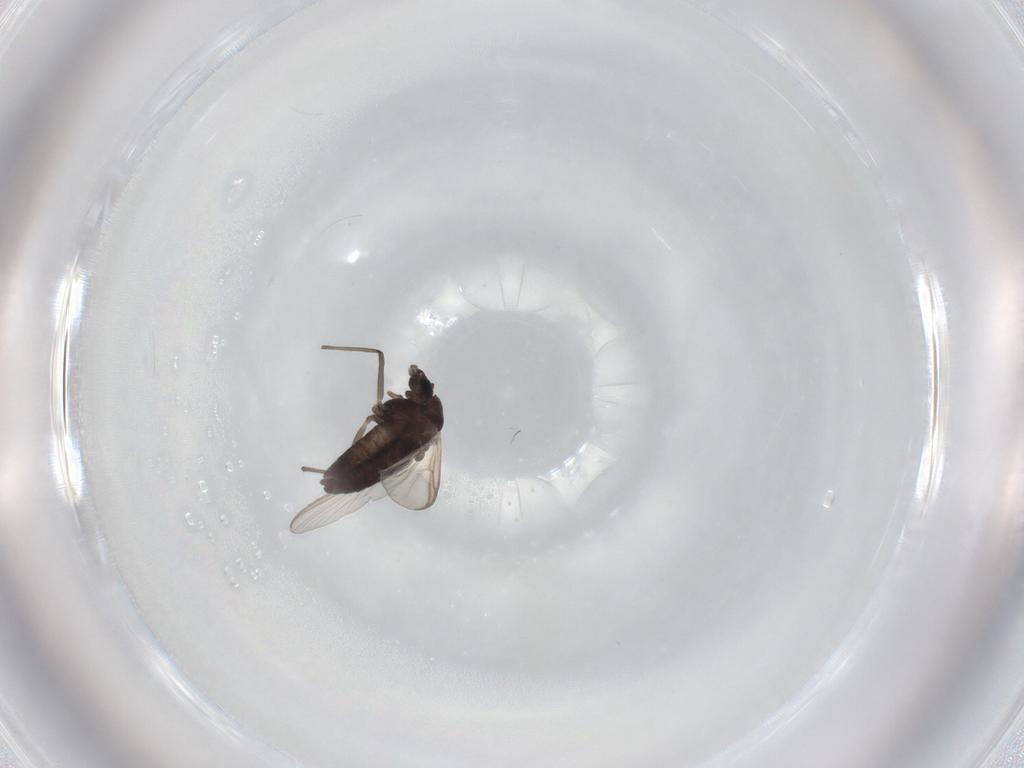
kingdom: Animalia
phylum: Arthropoda
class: Insecta
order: Diptera
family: Chironomidae
